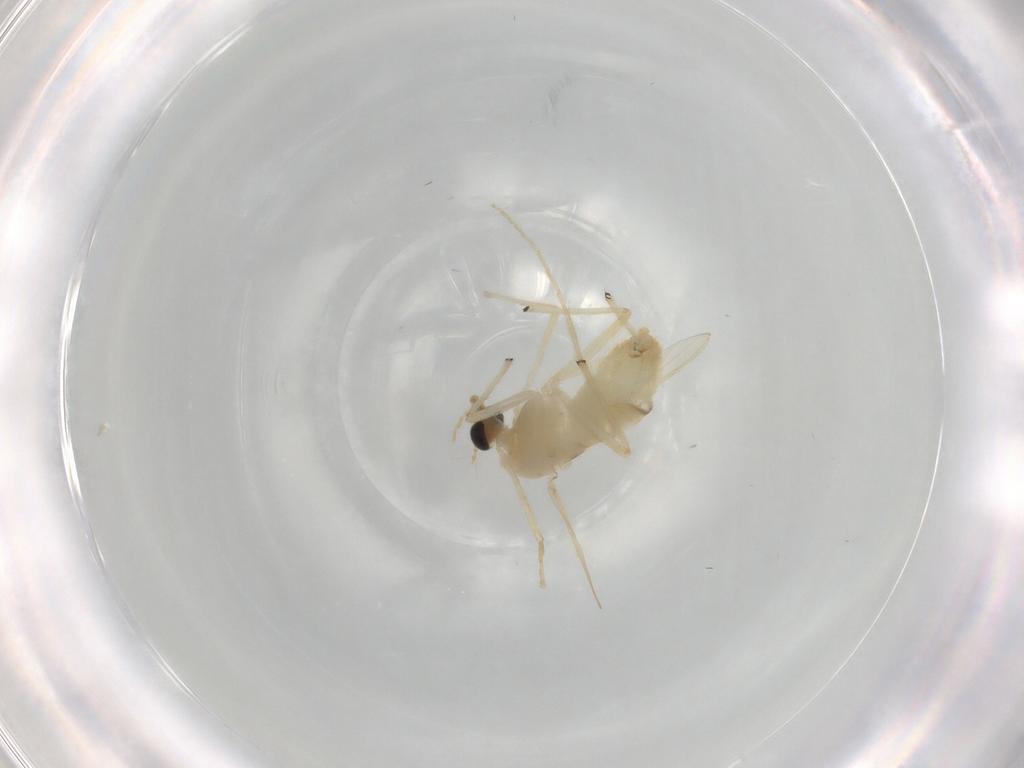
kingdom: Animalia
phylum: Arthropoda
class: Insecta
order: Diptera
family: Chironomidae
